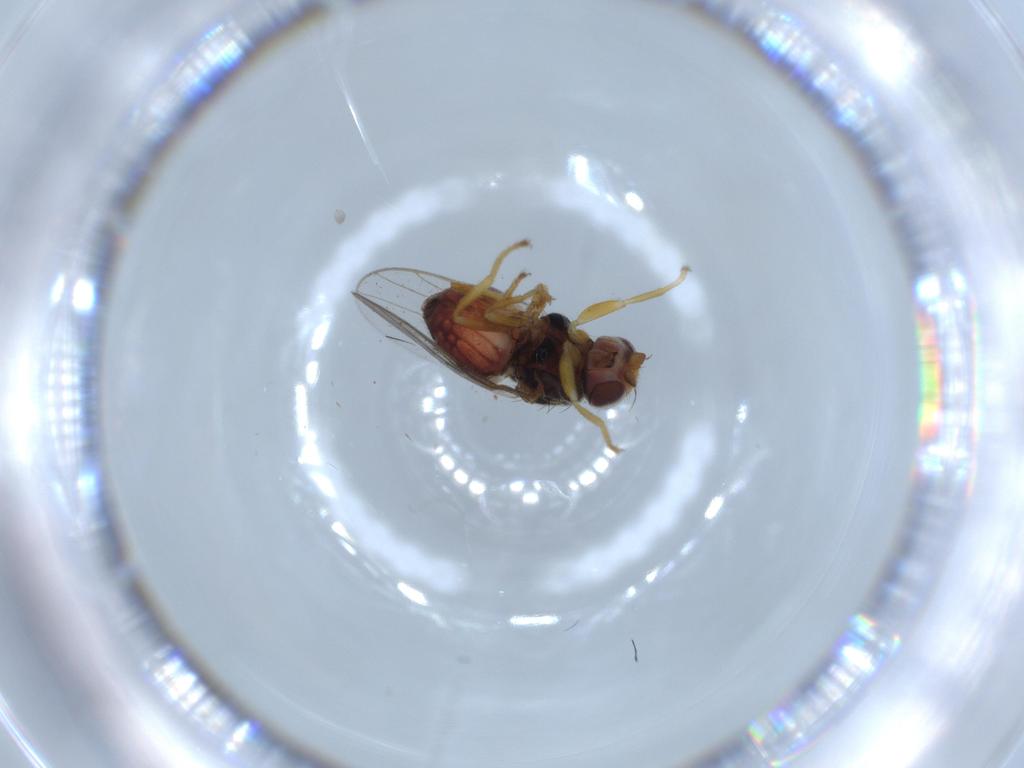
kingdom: Animalia
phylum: Arthropoda
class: Insecta
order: Diptera
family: Chloropidae
